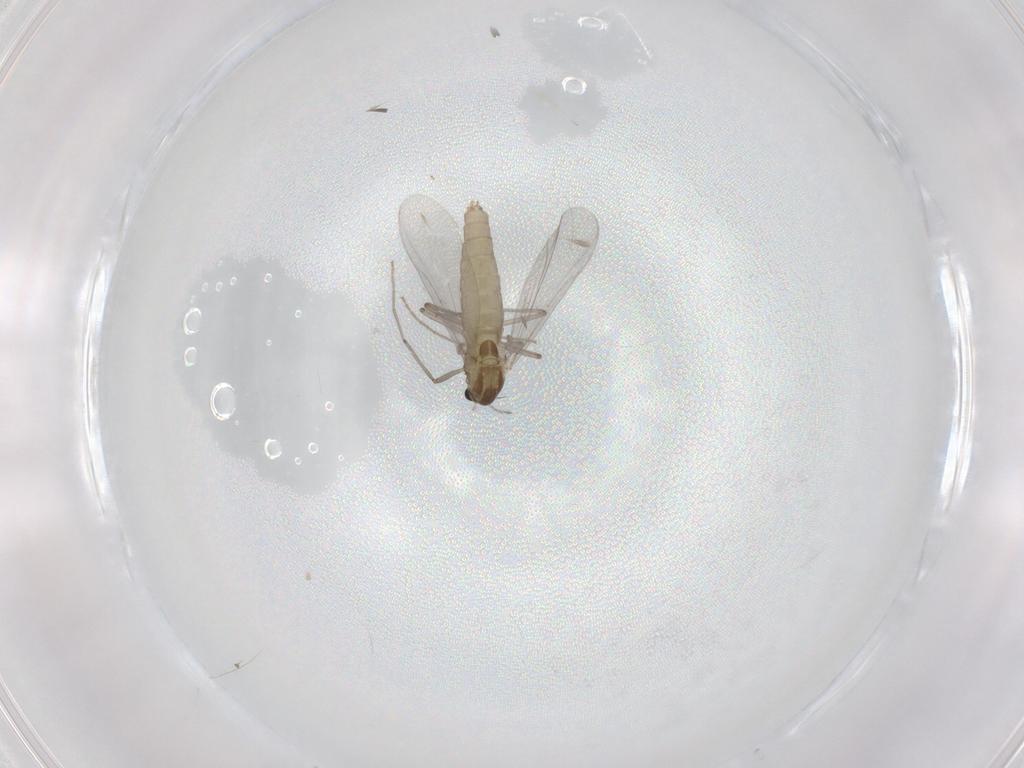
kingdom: Animalia
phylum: Arthropoda
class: Insecta
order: Diptera
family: Chironomidae
